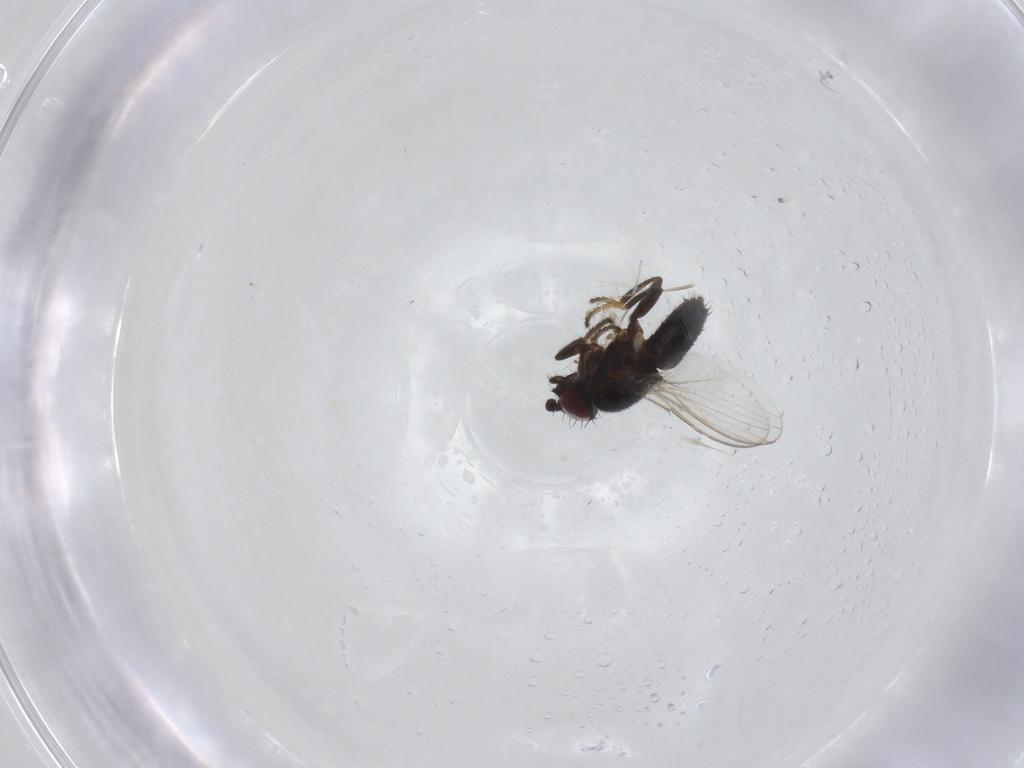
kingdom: Animalia
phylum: Arthropoda
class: Insecta
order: Diptera
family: Milichiidae
